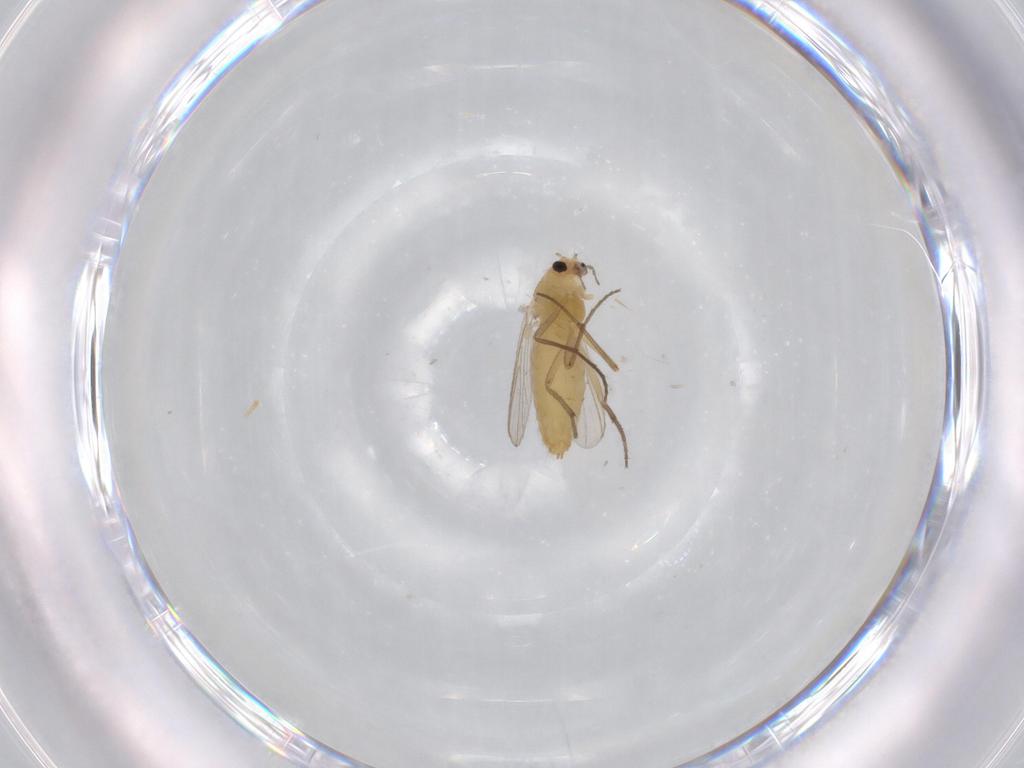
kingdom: Animalia
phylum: Arthropoda
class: Insecta
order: Diptera
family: Chironomidae
